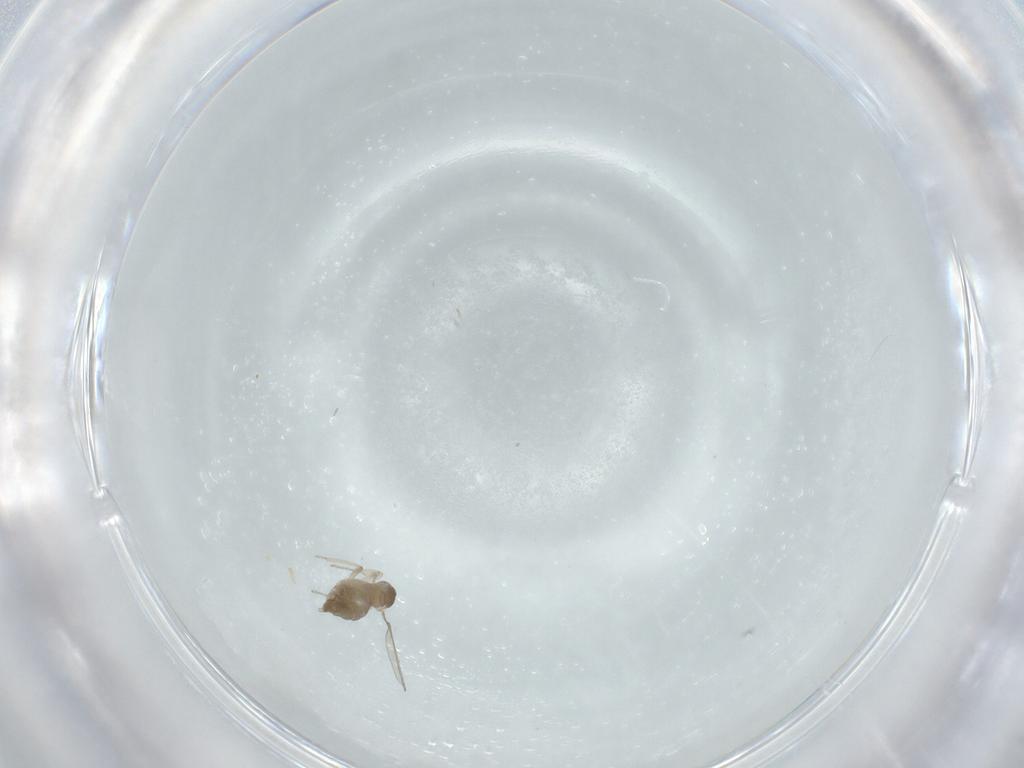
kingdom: Animalia
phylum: Arthropoda
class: Insecta
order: Diptera
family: Cecidomyiidae
